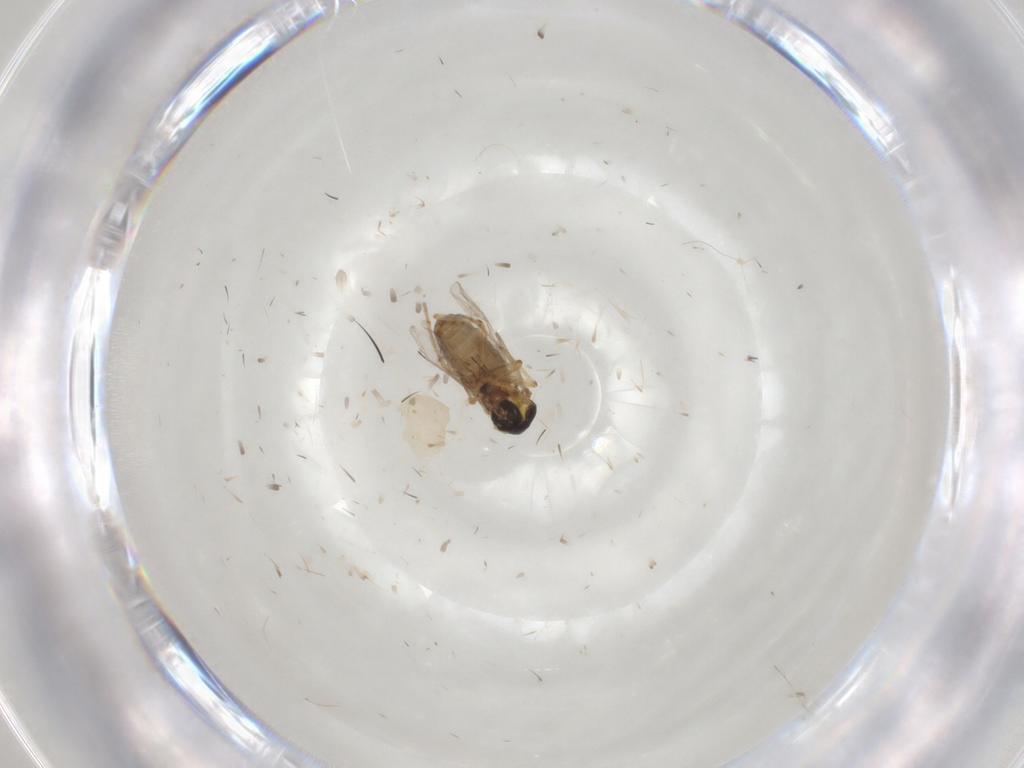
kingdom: Animalia
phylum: Arthropoda
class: Insecta
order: Diptera
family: Ceratopogonidae
